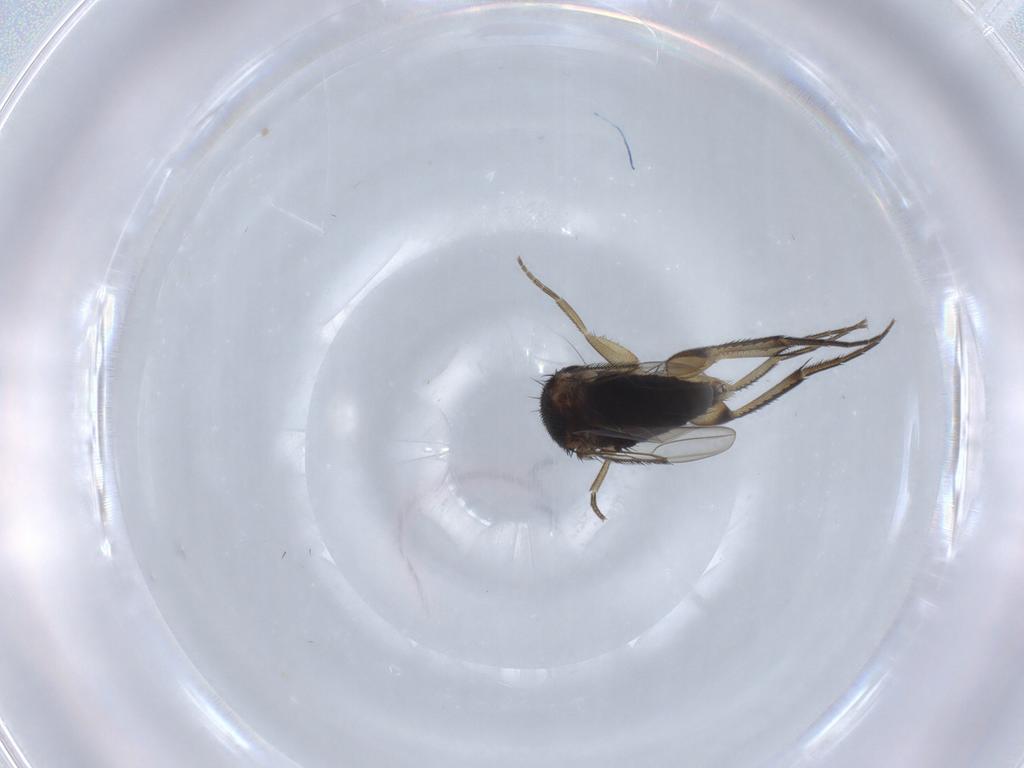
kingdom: Animalia
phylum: Arthropoda
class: Insecta
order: Diptera
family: Phoridae
